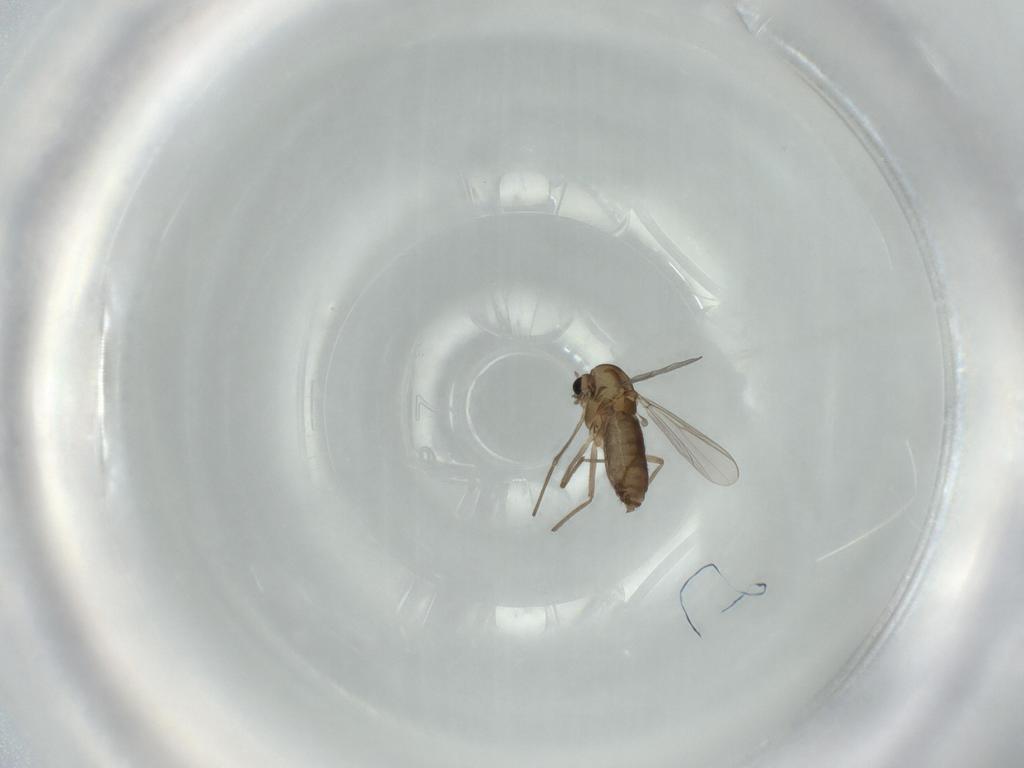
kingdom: Animalia
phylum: Arthropoda
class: Insecta
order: Diptera
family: Chironomidae
